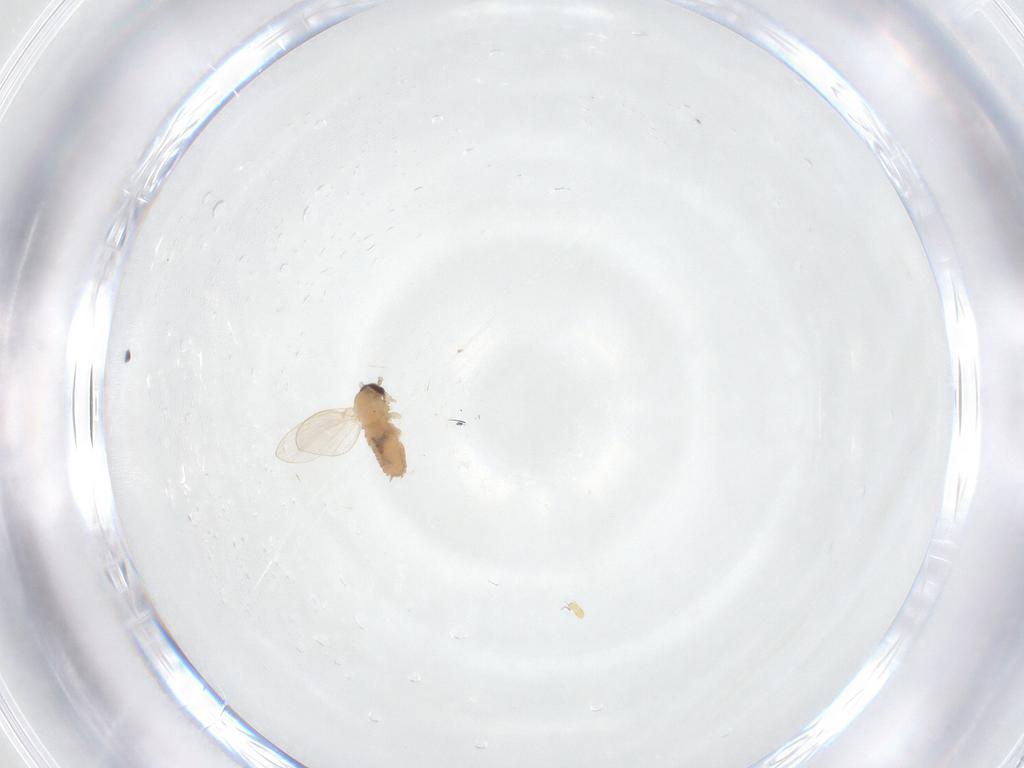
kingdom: Animalia
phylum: Arthropoda
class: Insecta
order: Diptera
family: Psychodidae
